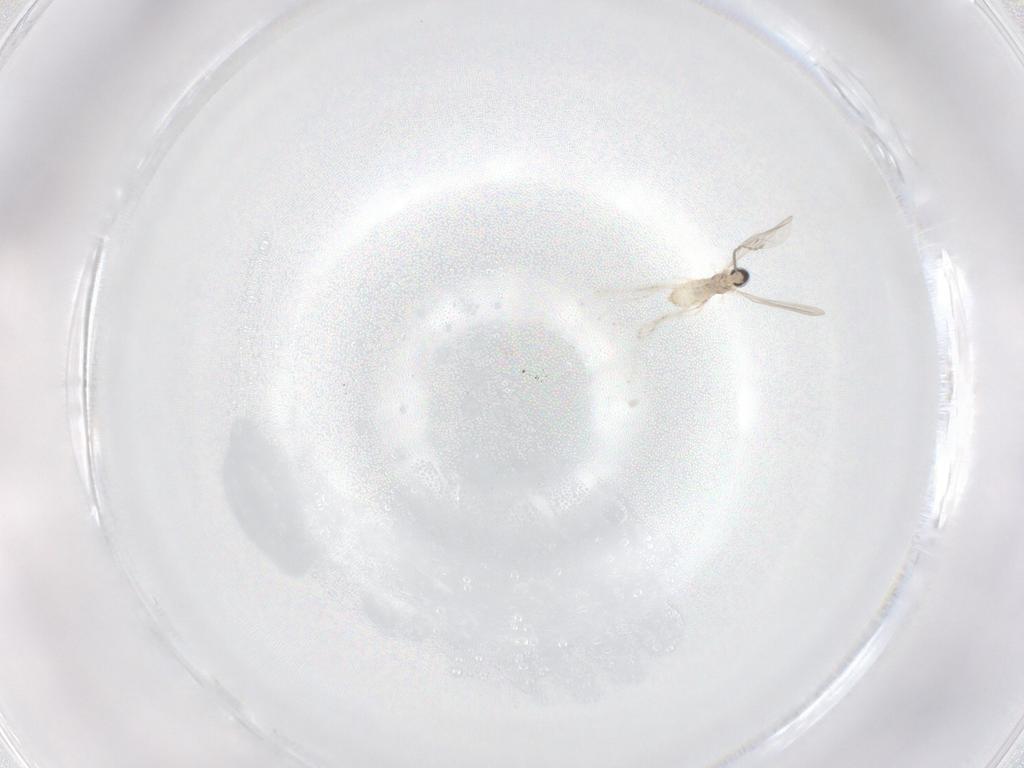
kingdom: Animalia
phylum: Arthropoda
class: Insecta
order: Diptera
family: Cecidomyiidae
